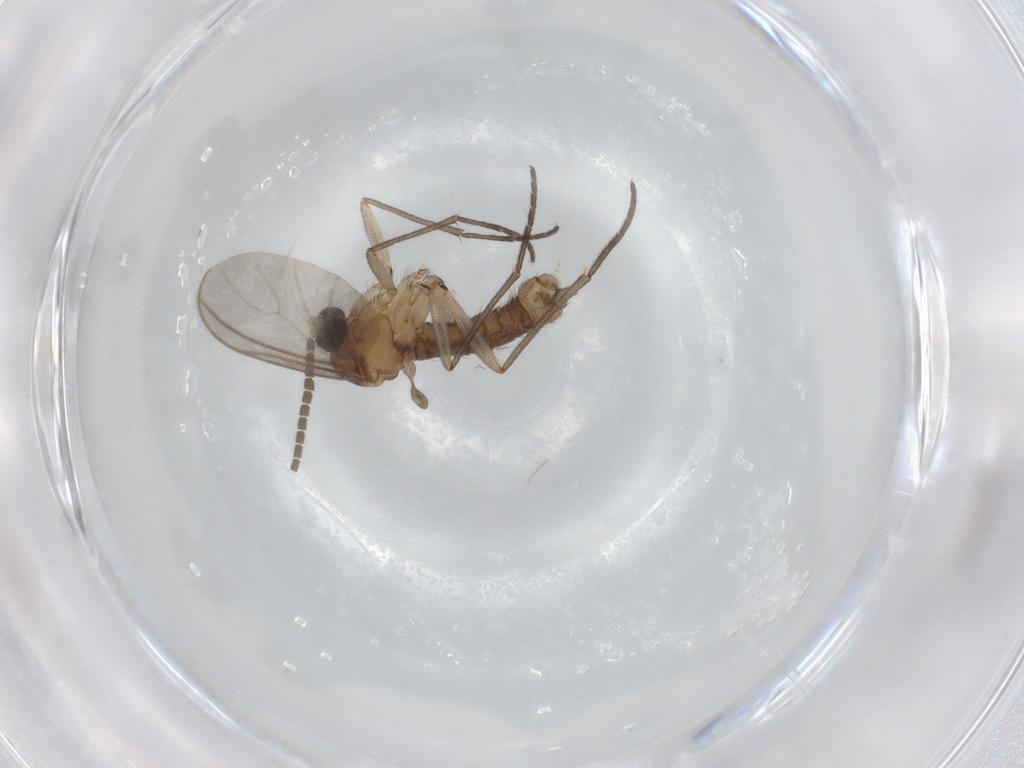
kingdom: Animalia
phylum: Arthropoda
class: Insecta
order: Diptera
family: Sciaridae
